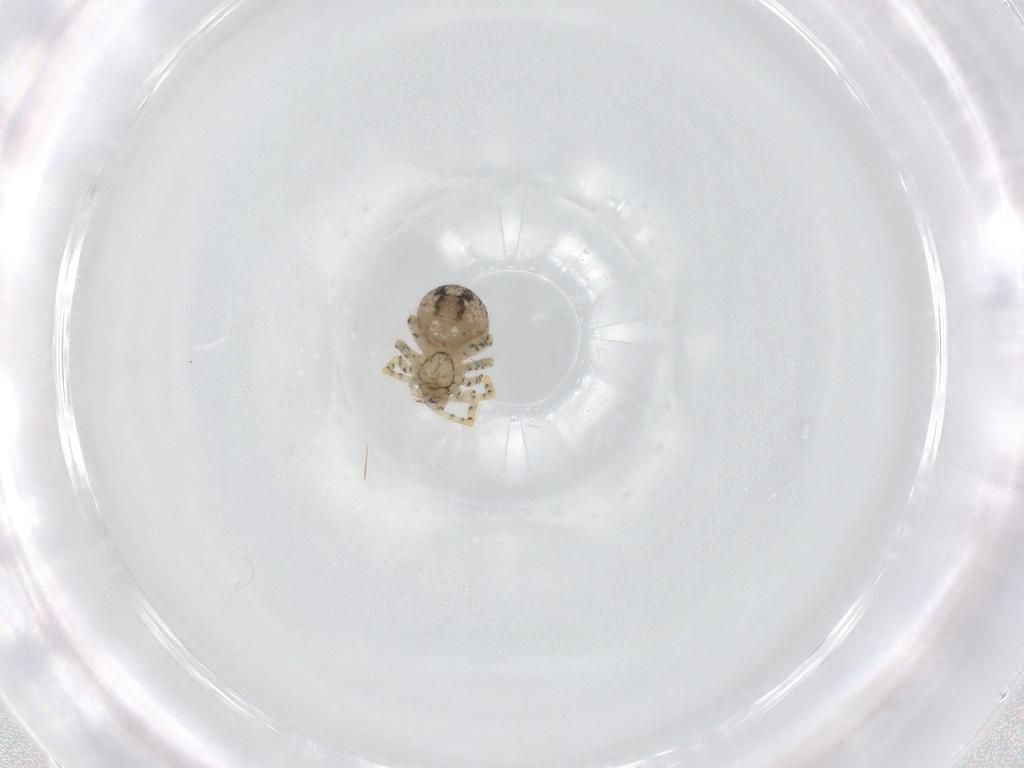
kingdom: Animalia
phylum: Arthropoda
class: Arachnida
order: Araneae
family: Theridiidae
